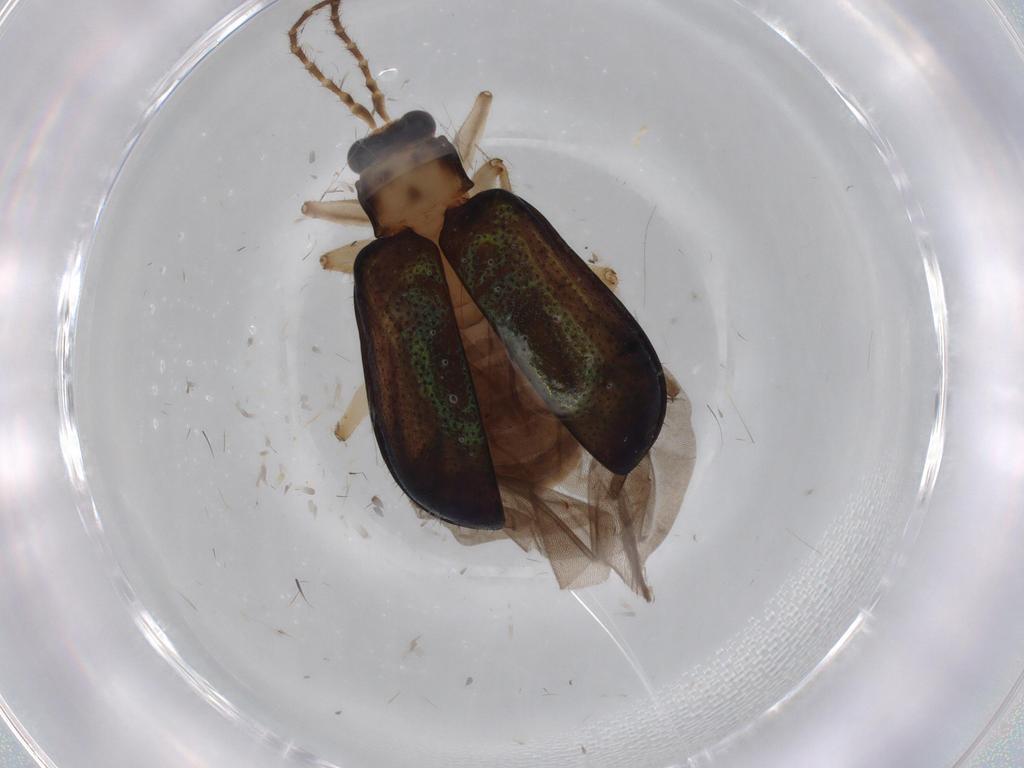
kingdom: Animalia
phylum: Arthropoda
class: Insecta
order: Coleoptera
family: Chrysomelidae
